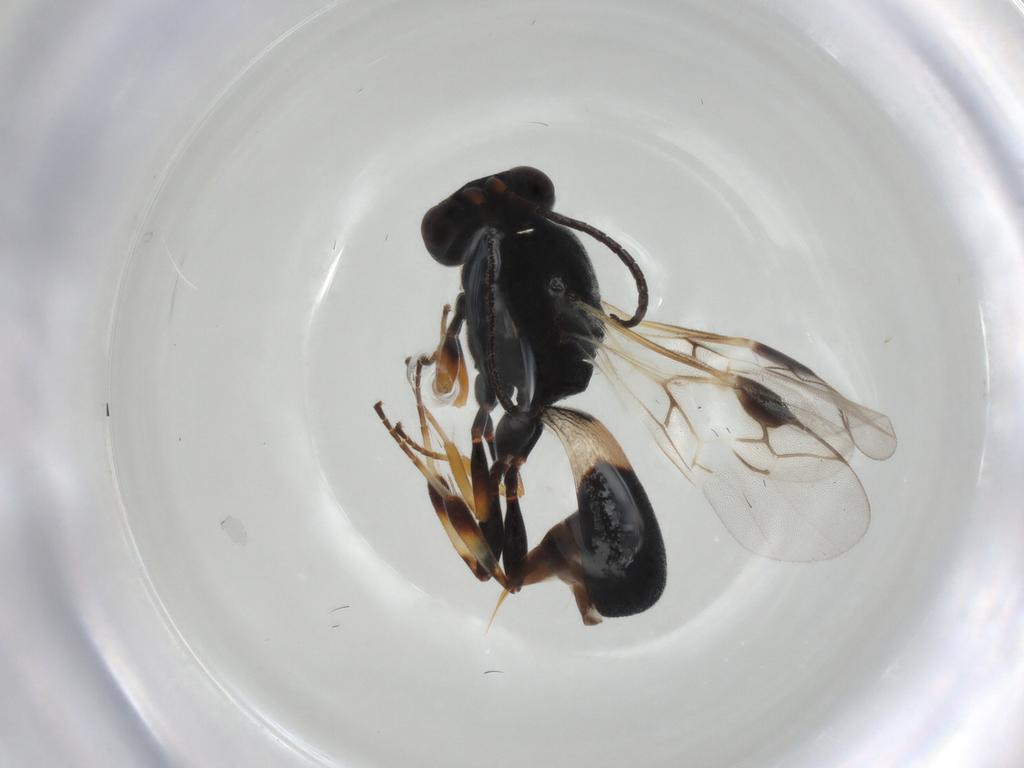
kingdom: Animalia
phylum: Arthropoda
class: Insecta
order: Hymenoptera
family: Braconidae
